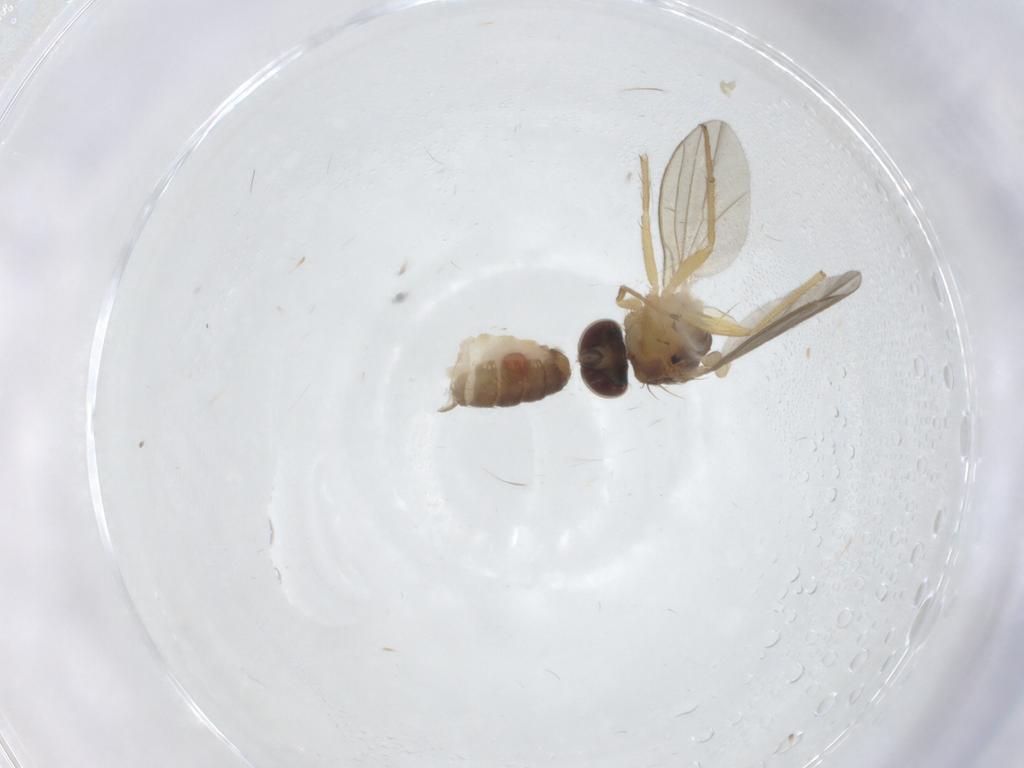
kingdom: Animalia
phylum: Arthropoda
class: Insecta
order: Diptera
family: Dolichopodidae
